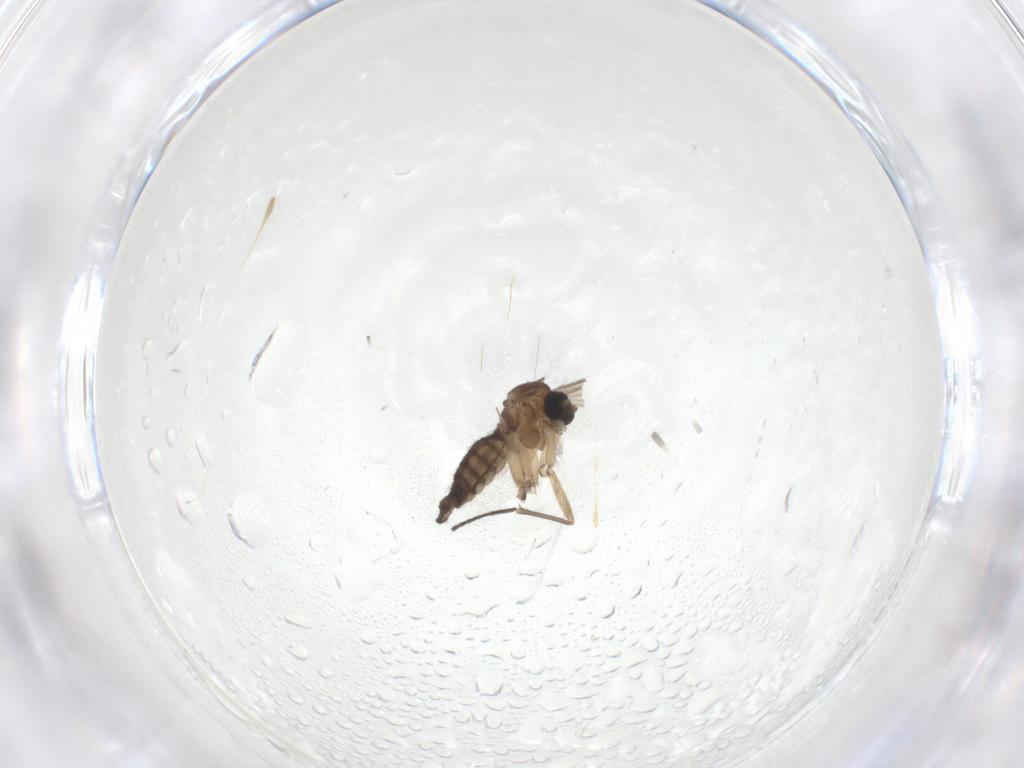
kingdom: Animalia
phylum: Arthropoda
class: Insecta
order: Diptera
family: Sciaridae
